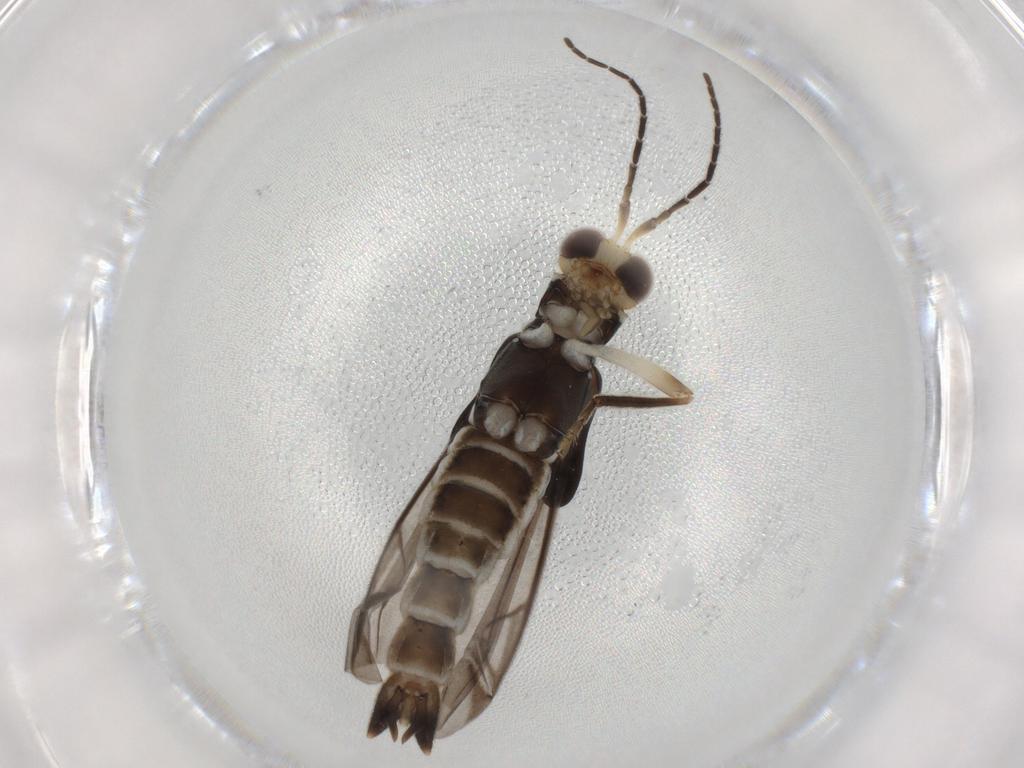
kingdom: Animalia
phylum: Arthropoda
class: Insecta
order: Coleoptera
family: Cantharidae
